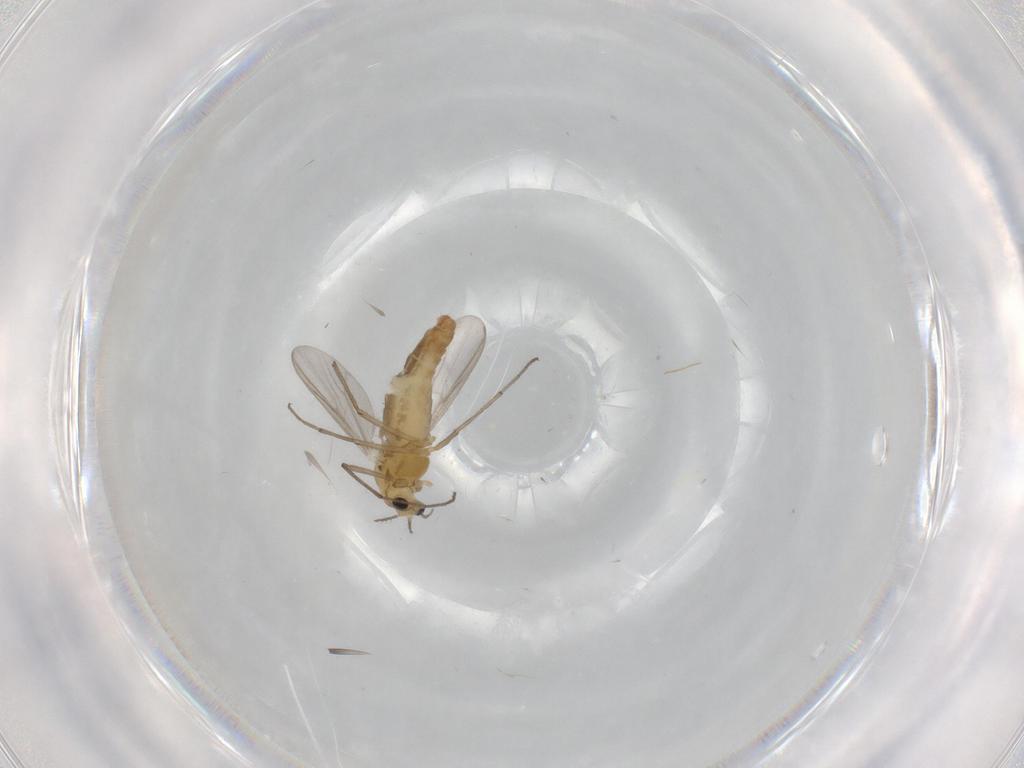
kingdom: Animalia
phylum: Arthropoda
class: Insecta
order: Diptera
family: Chironomidae
